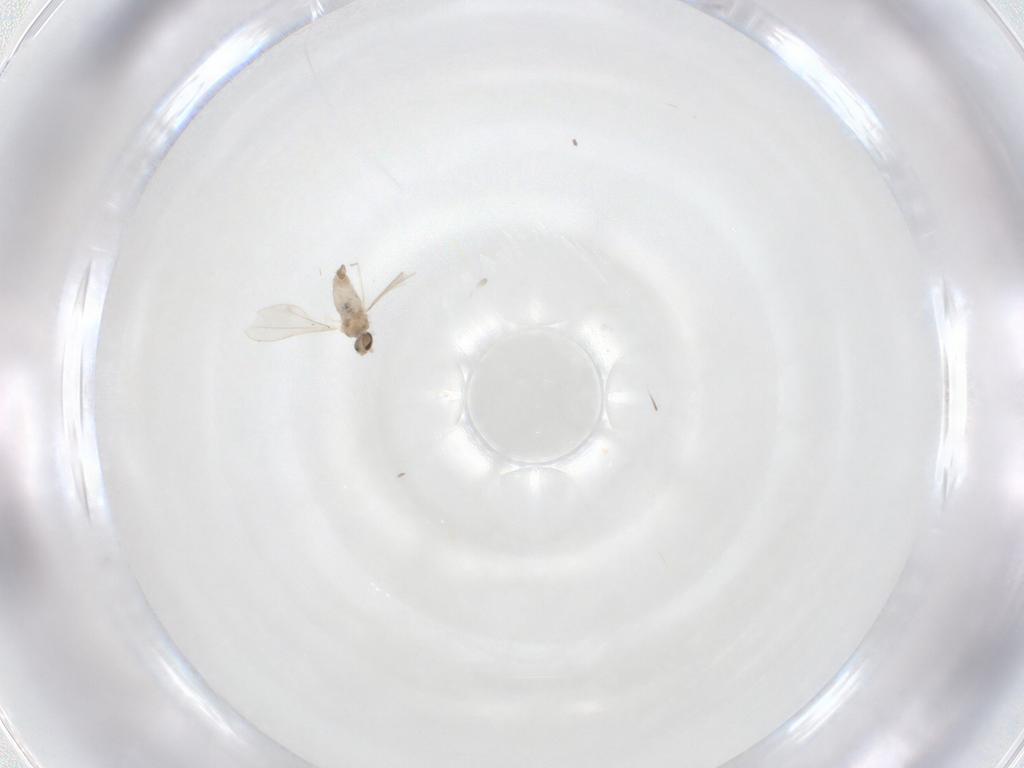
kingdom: Animalia
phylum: Arthropoda
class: Insecta
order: Diptera
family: Cecidomyiidae
